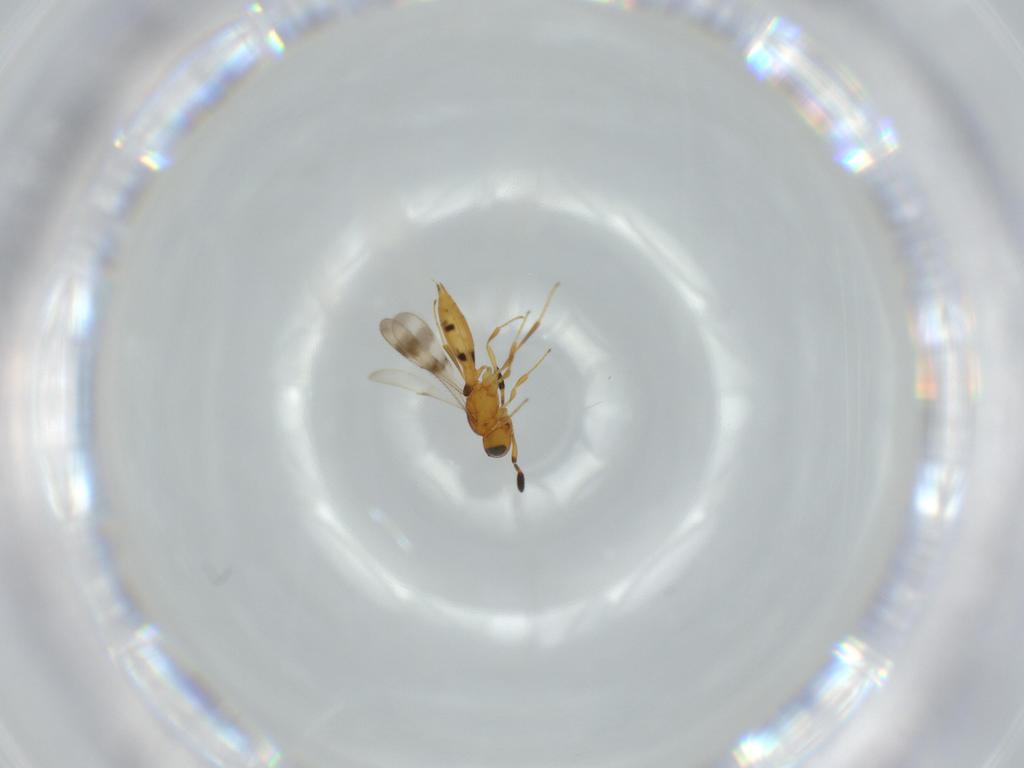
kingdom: Animalia
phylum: Arthropoda
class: Insecta
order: Hymenoptera
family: Scelionidae
